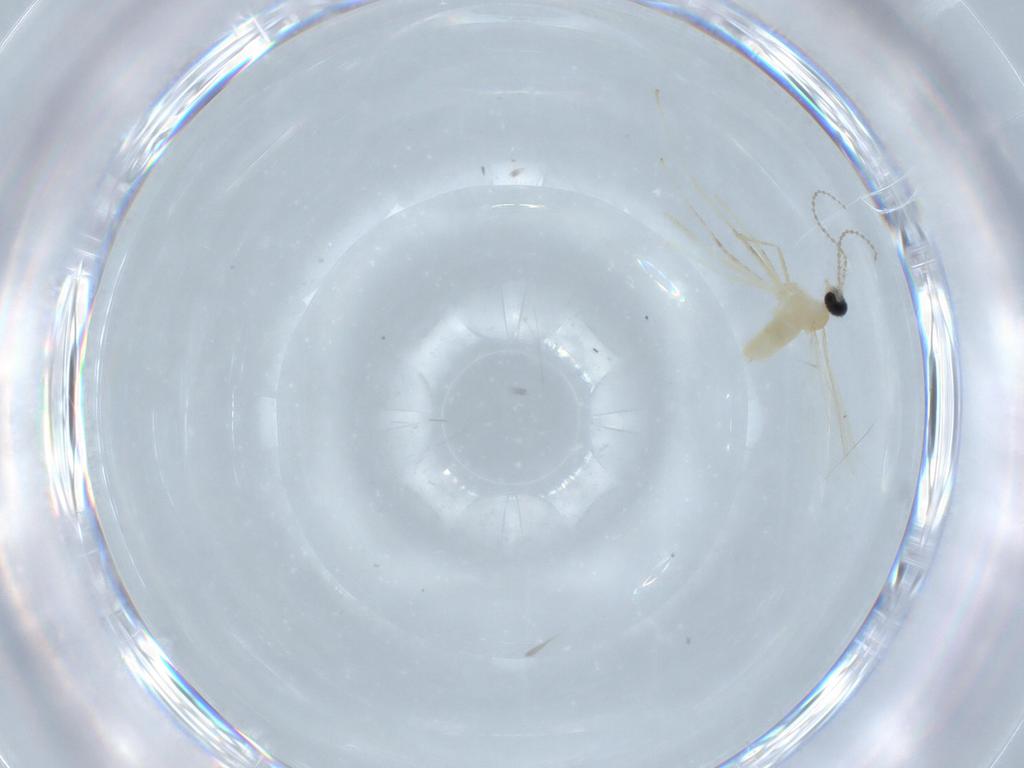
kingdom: Animalia
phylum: Arthropoda
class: Insecta
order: Diptera
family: Cecidomyiidae
